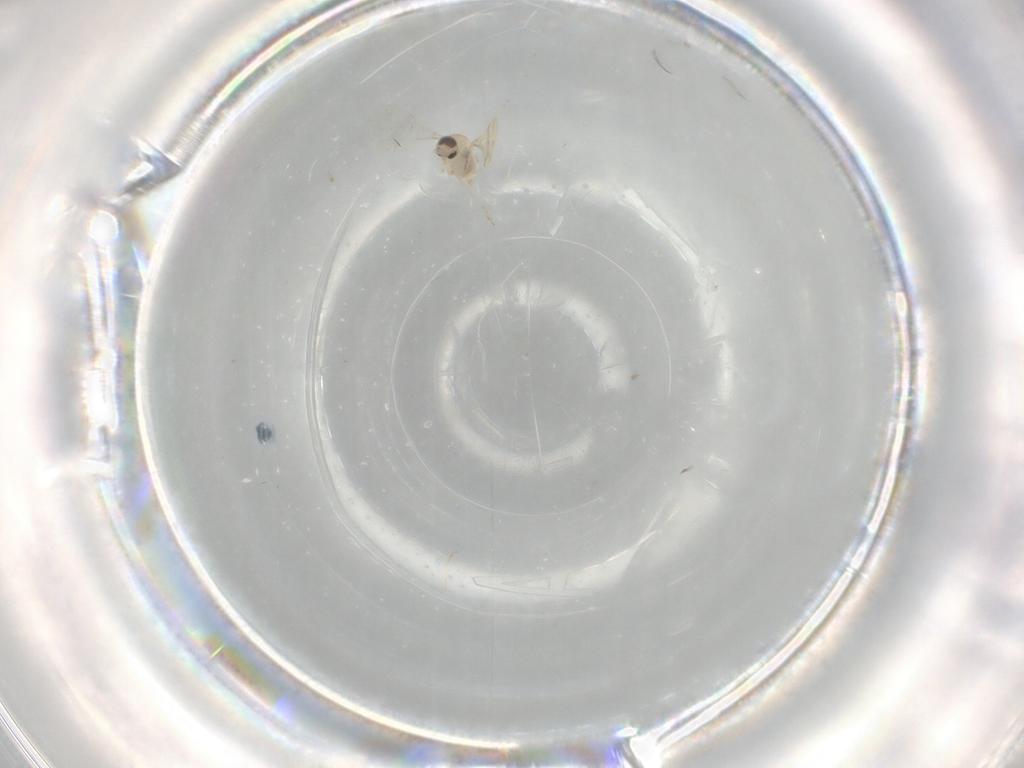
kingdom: Animalia
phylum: Arthropoda
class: Insecta
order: Diptera
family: Cecidomyiidae
